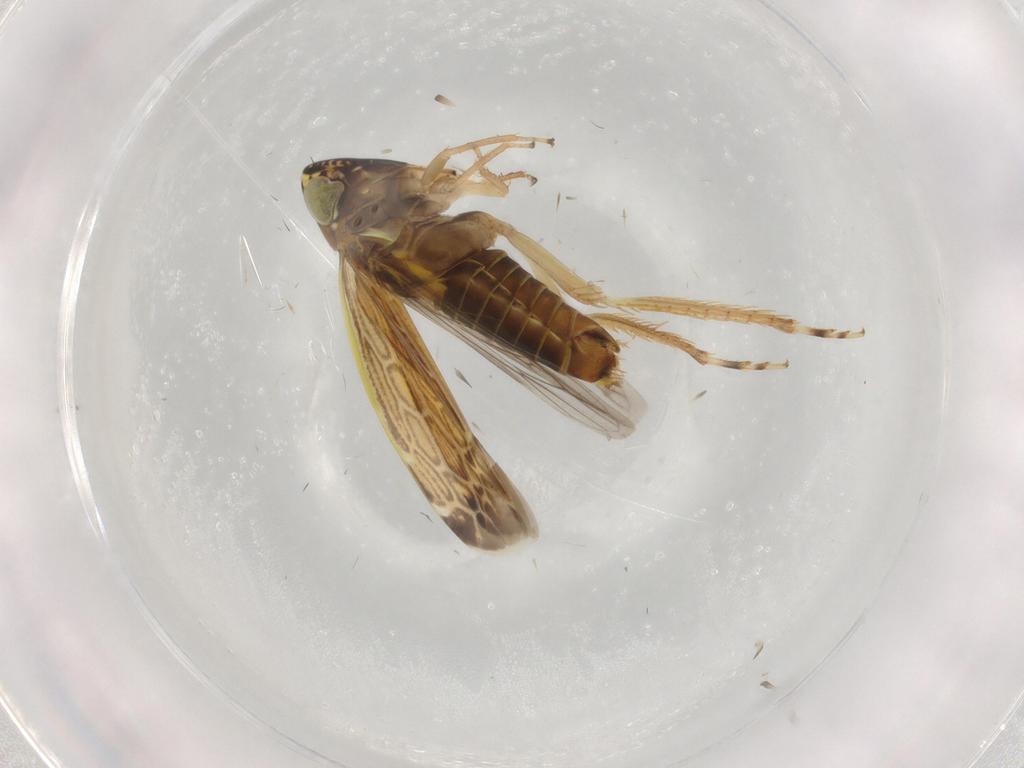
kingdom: Animalia
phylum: Arthropoda
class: Insecta
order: Hemiptera
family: Cicadellidae
